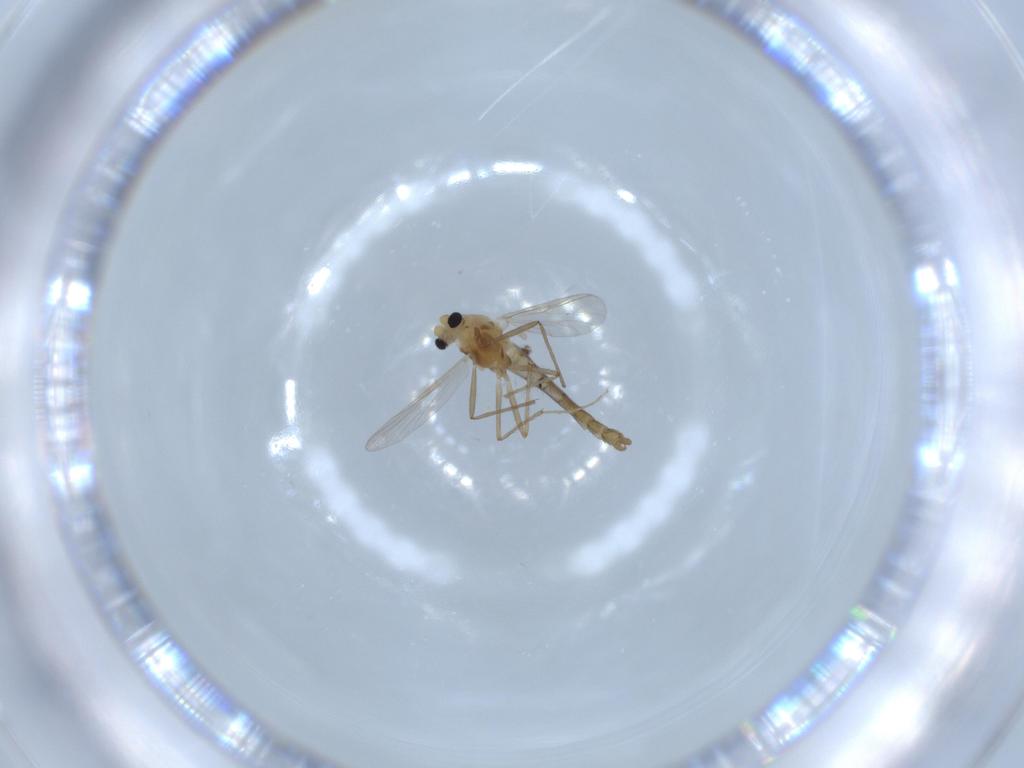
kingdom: Animalia
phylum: Arthropoda
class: Insecta
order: Diptera
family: Chironomidae
